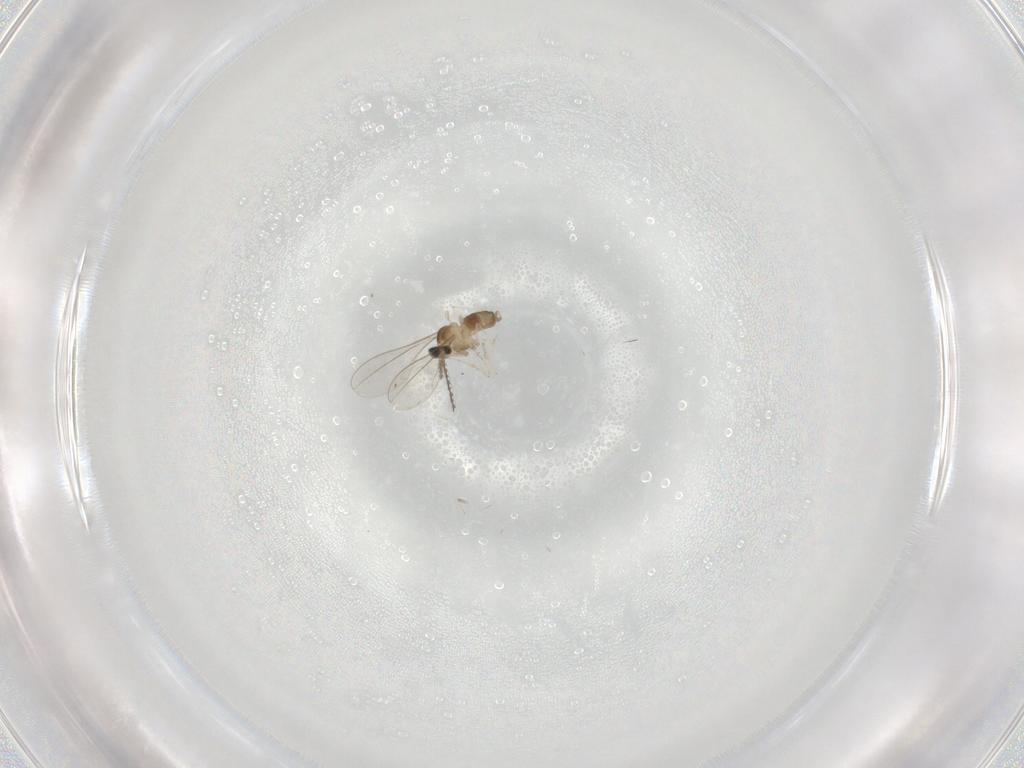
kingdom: Animalia
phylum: Arthropoda
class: Insecta
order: Diptera
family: Cecidomyiidae
